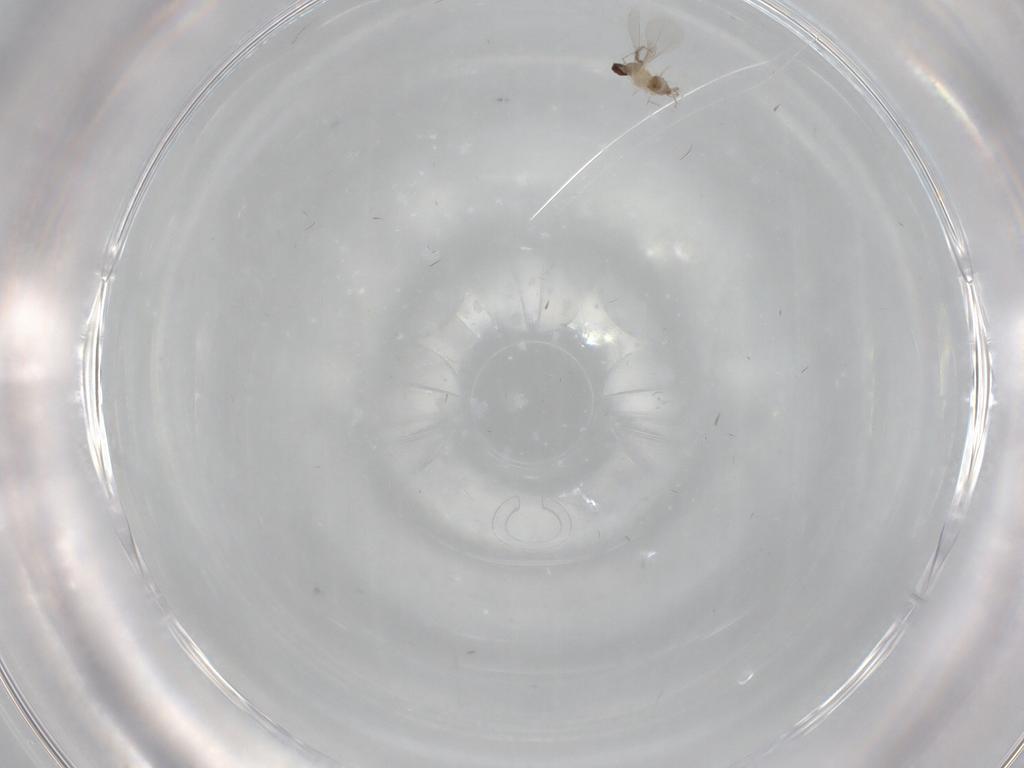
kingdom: Animalia
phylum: Arthropoda
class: Insecta
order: Diptera
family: Cecidomyiidae
